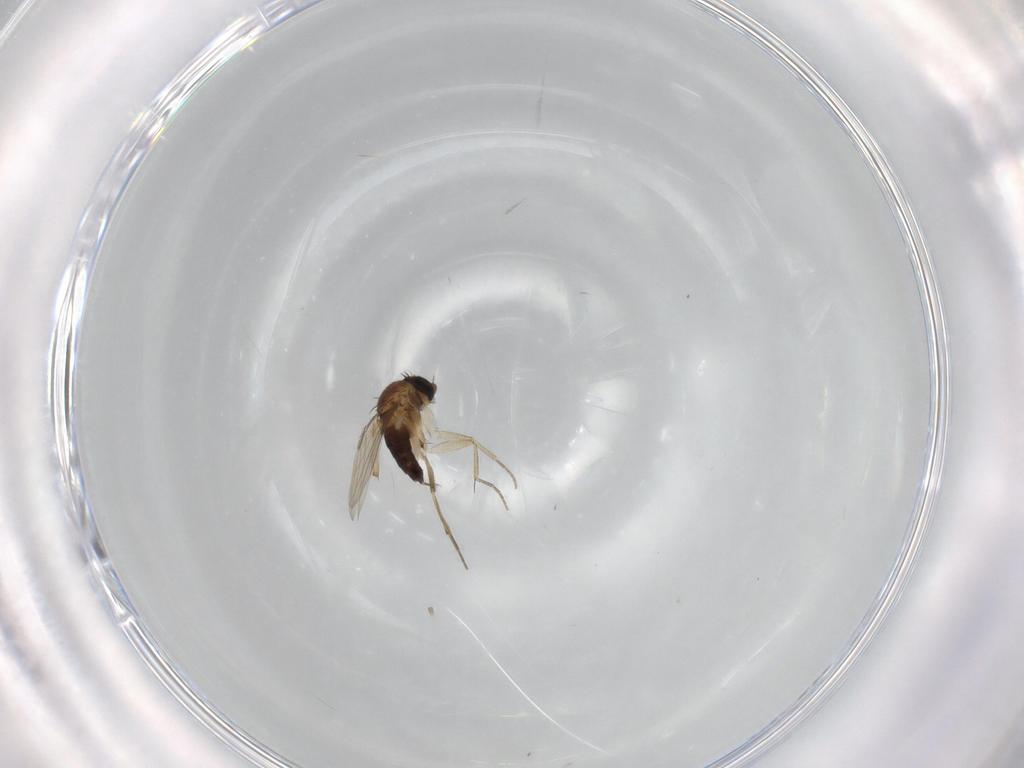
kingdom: Animalia
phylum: Arthropoda
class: Insecta
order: Diptera
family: Phoridae
